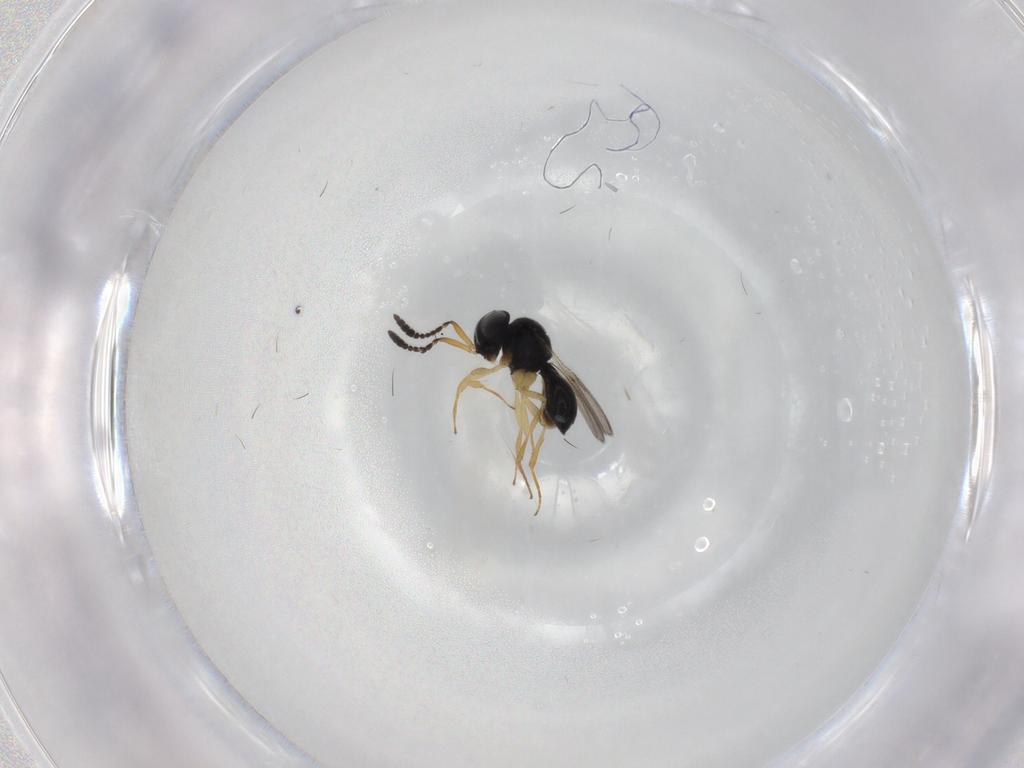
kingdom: Animalia
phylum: Arthropoda
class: Insecta
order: Hymenoptera
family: Scelionidae
